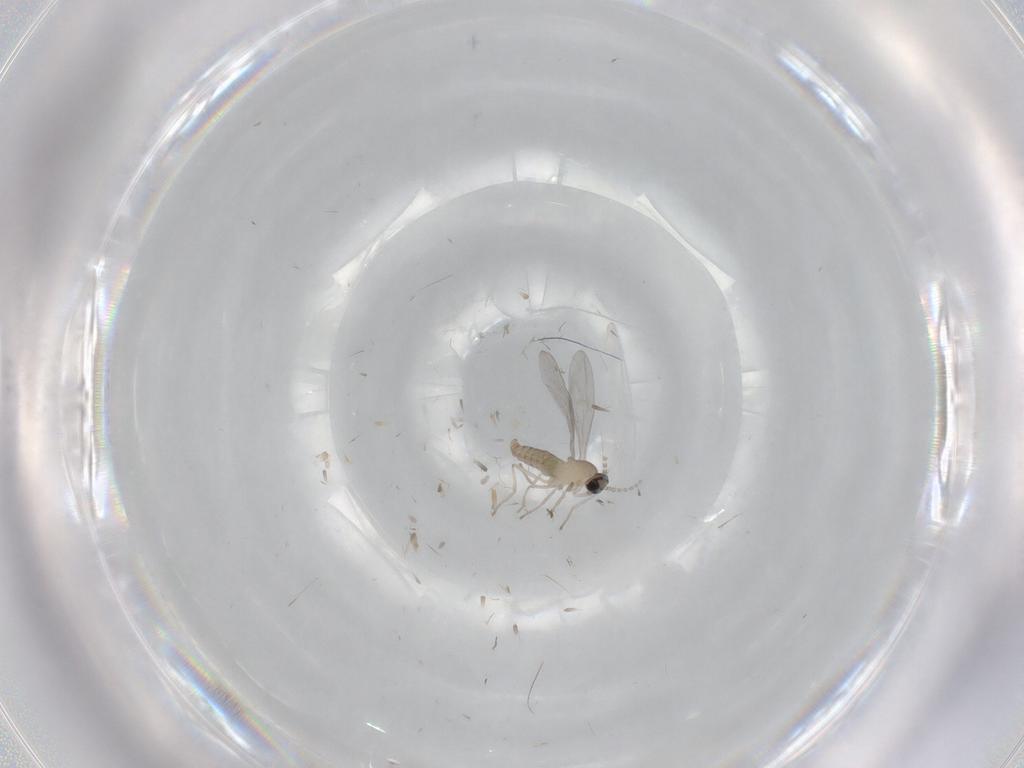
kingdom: Animalia
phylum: Arthropoda
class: Insecta
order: Diptera
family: Cecidomyiidae
